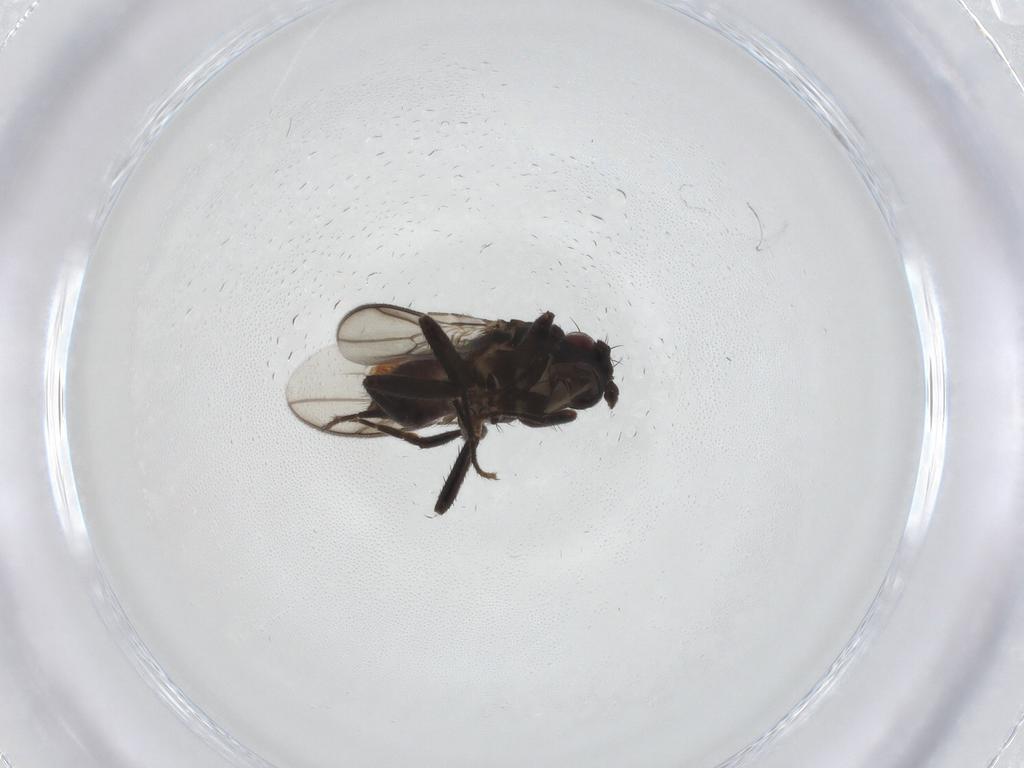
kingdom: Animalia
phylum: Arthropoda
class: Insecta
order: Diptera
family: Sphaeroceridae
